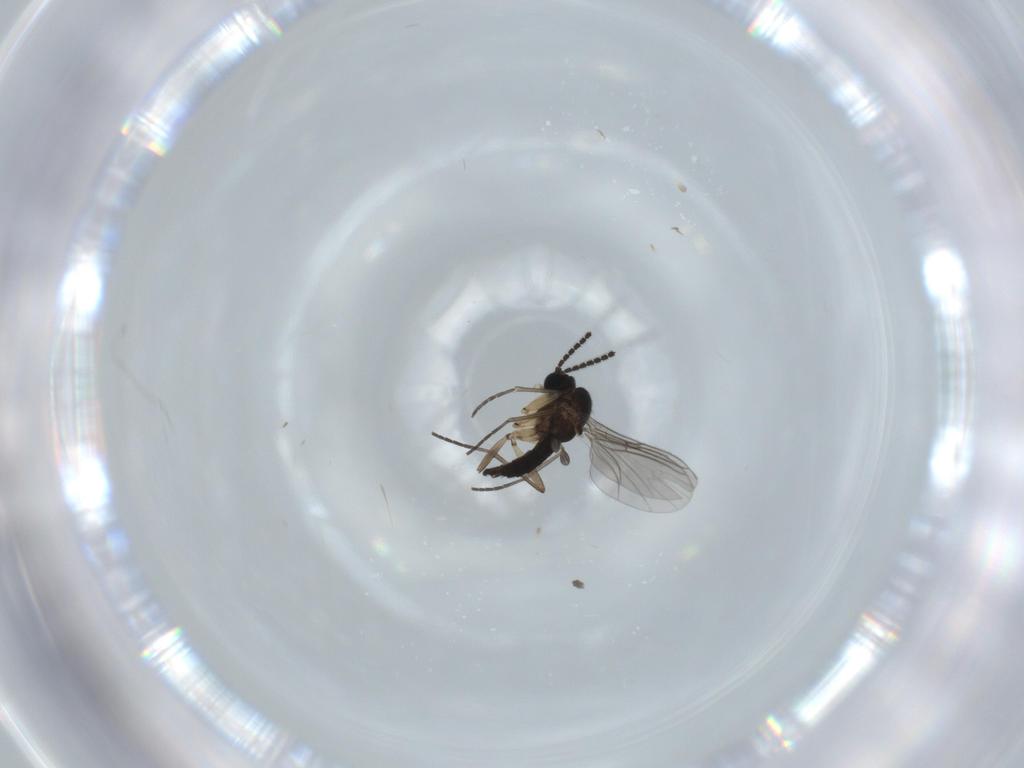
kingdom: Animalia
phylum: Arthropoda
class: Insecta
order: Diptera
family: Sciaridae
